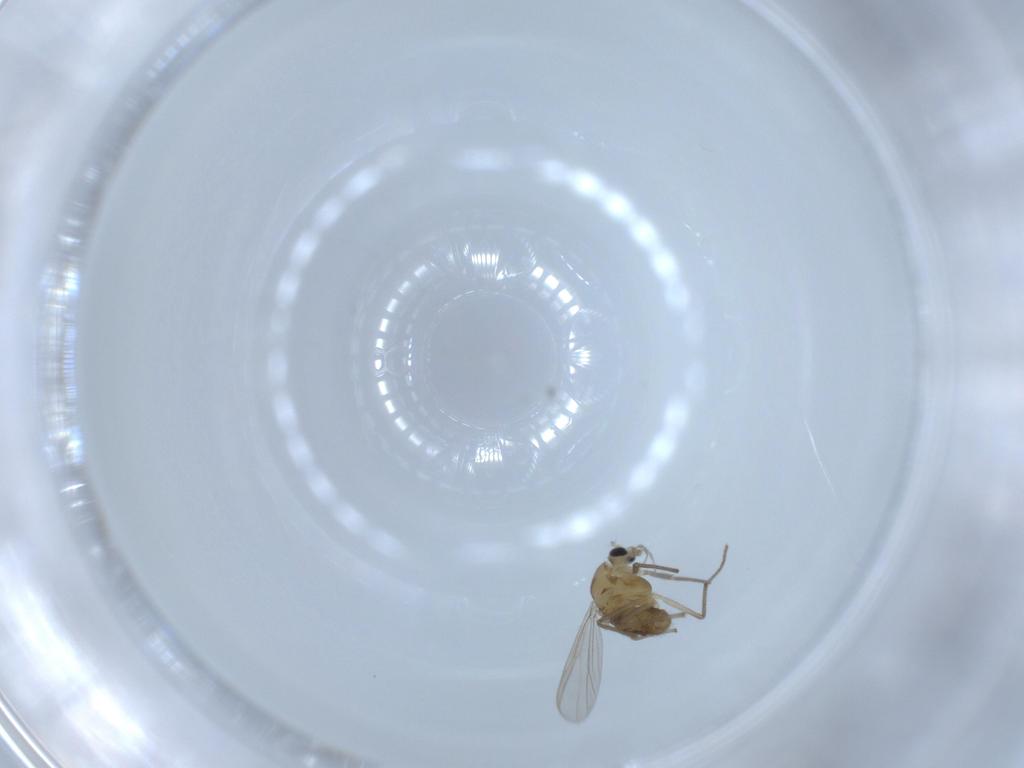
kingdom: Animalia
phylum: Arthropoda
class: Insecta
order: Diptera
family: Chironomidae
